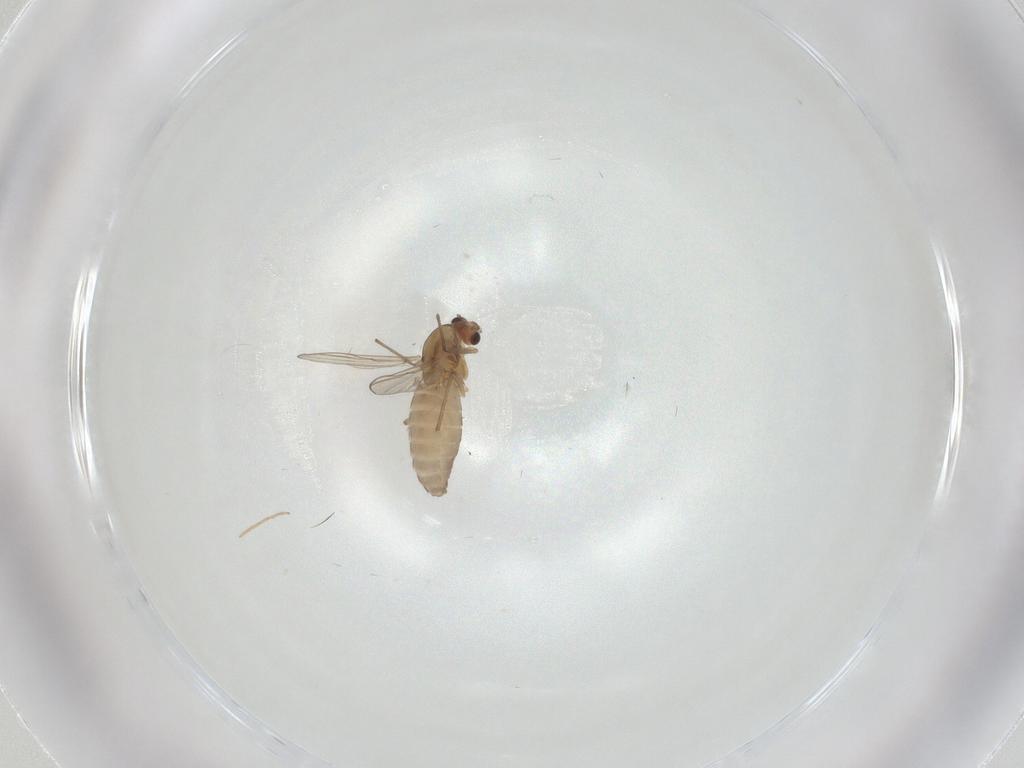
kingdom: Animalia
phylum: Arthropoda
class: Insecta
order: Diptera
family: Chironomidae
